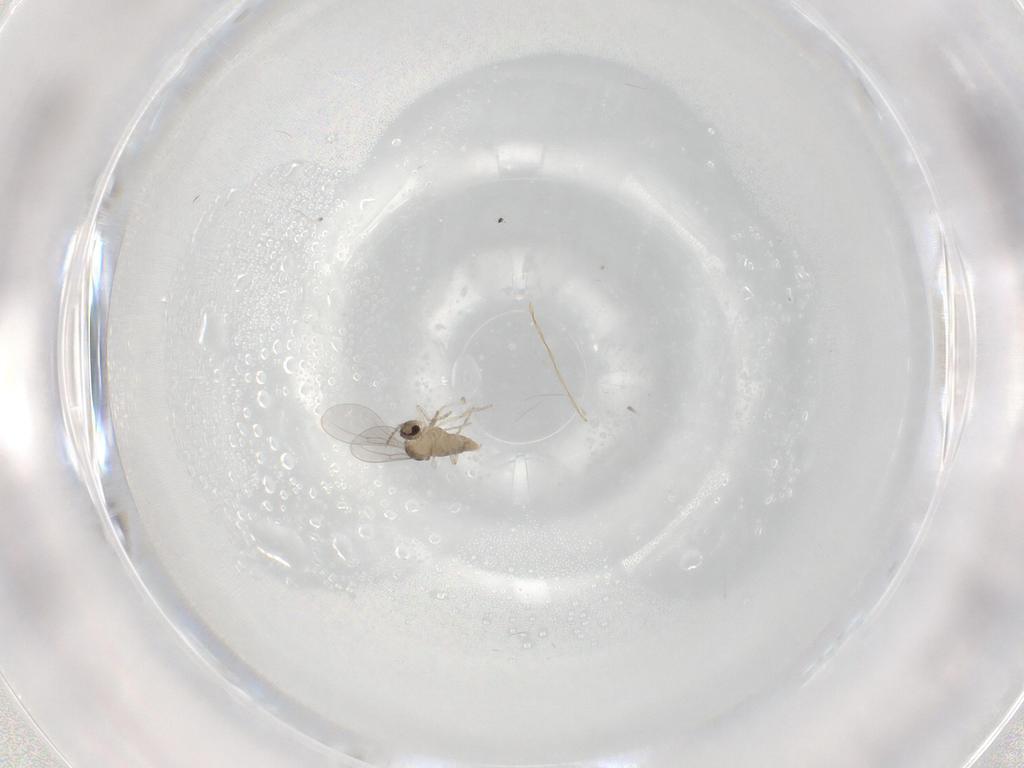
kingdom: Animalia
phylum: Arthropoda
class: Insecta
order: Diptera
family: Cecidomyiidae
